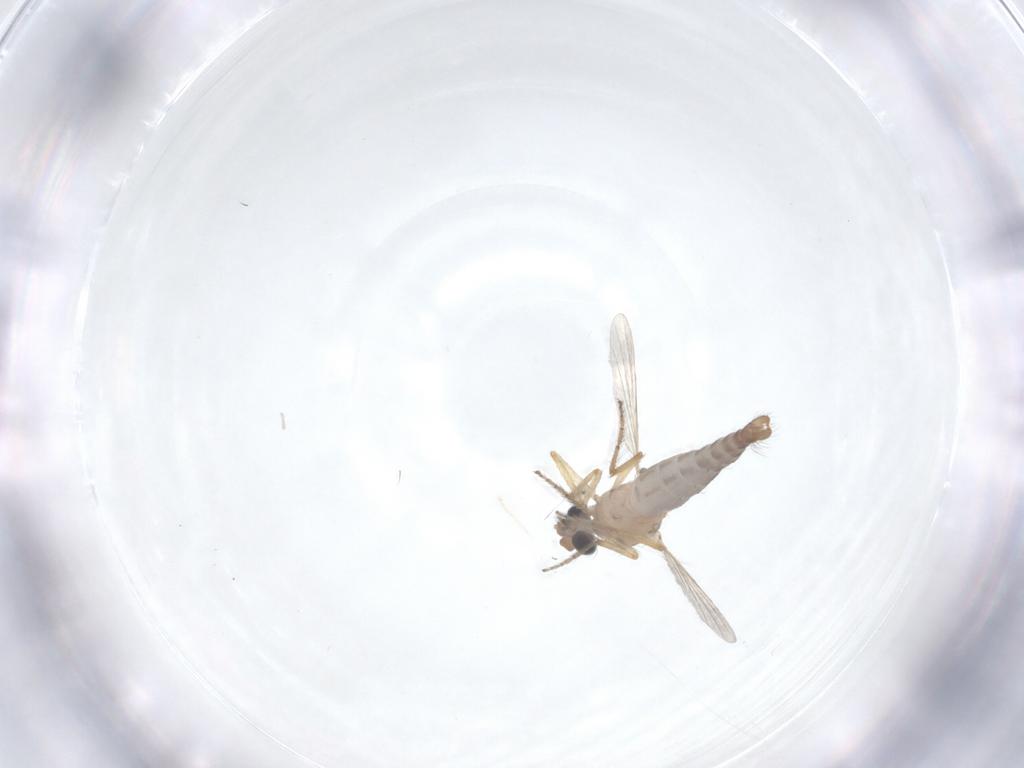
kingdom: Animalia
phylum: Arthropoda
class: Insecta
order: Diptera
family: Ceratopogonidae
